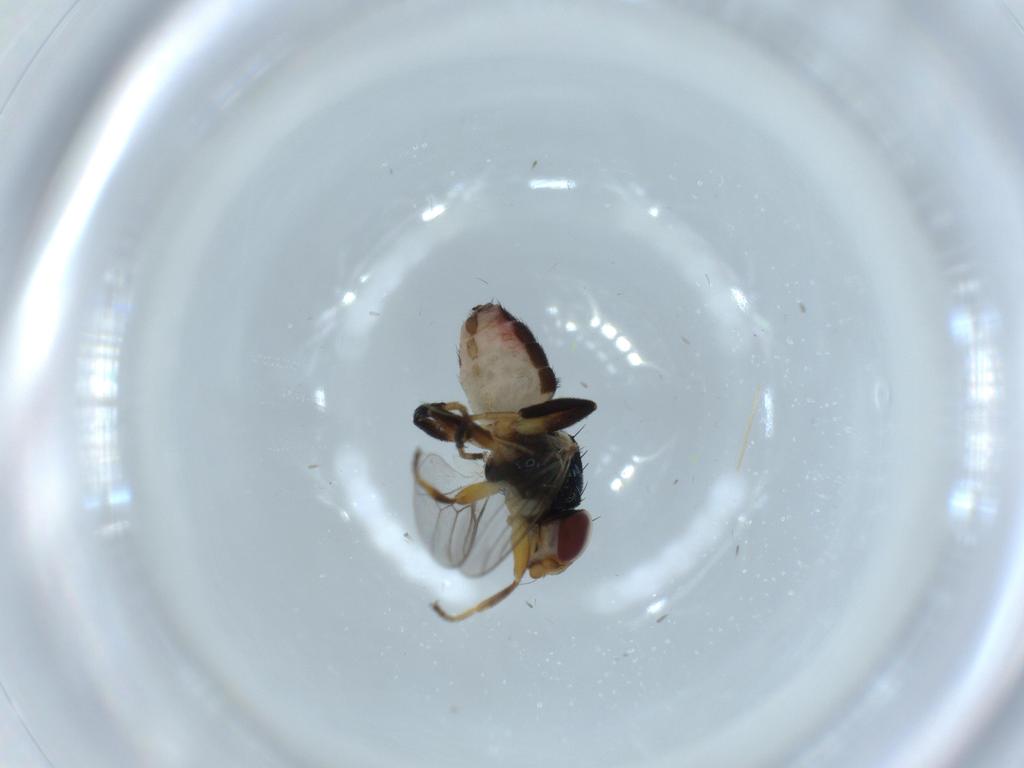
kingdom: Animalia
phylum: Arthropoda
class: Insecta
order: Diptera
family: Chloropidae
